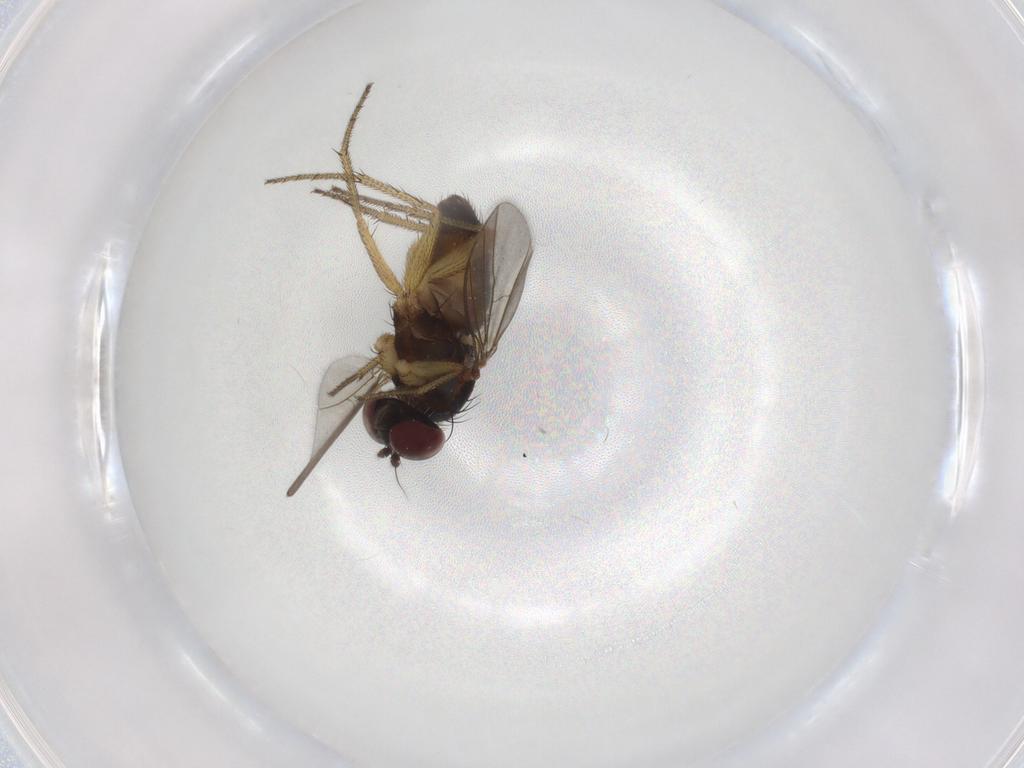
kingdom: Animalia
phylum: Arthropoda
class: Insecta
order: Diptera
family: Dolichopodidae
